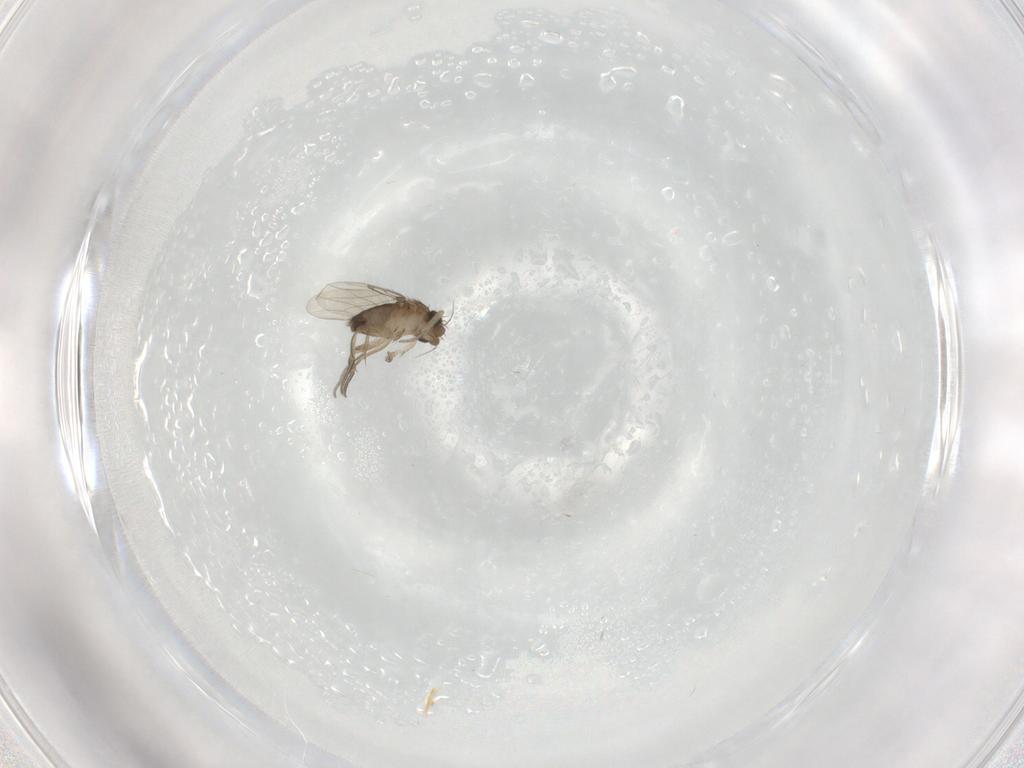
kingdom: Animalia
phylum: Arthropoda
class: Insecta
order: Diptera
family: Phoridae
